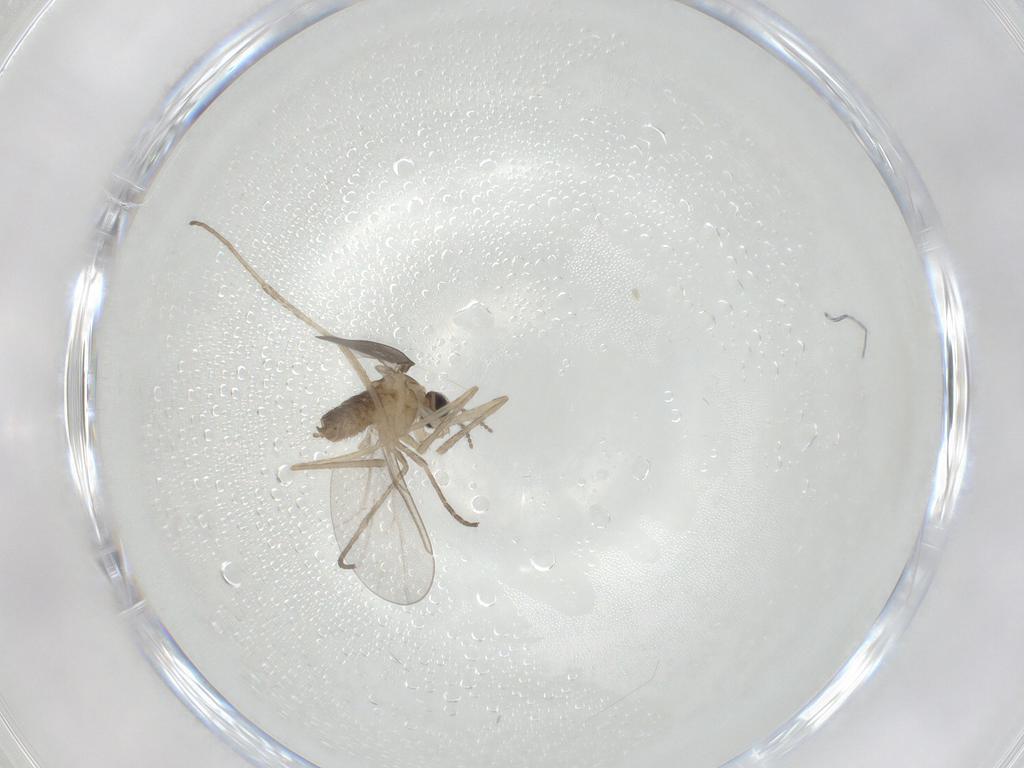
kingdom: Animalia
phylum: Arthropoda
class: Insecta
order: Diptera
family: Cecidomyiidae
